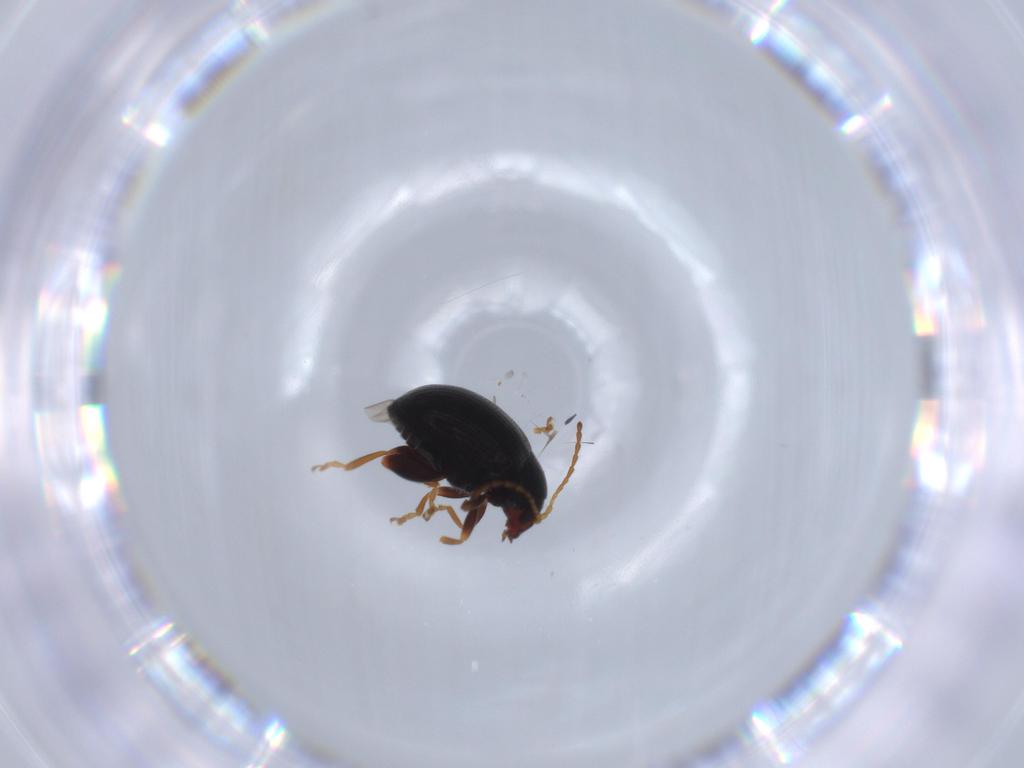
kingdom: Animalia
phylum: Arthropoda
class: Insecta
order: Coleoptera
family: Chrysomelidae
